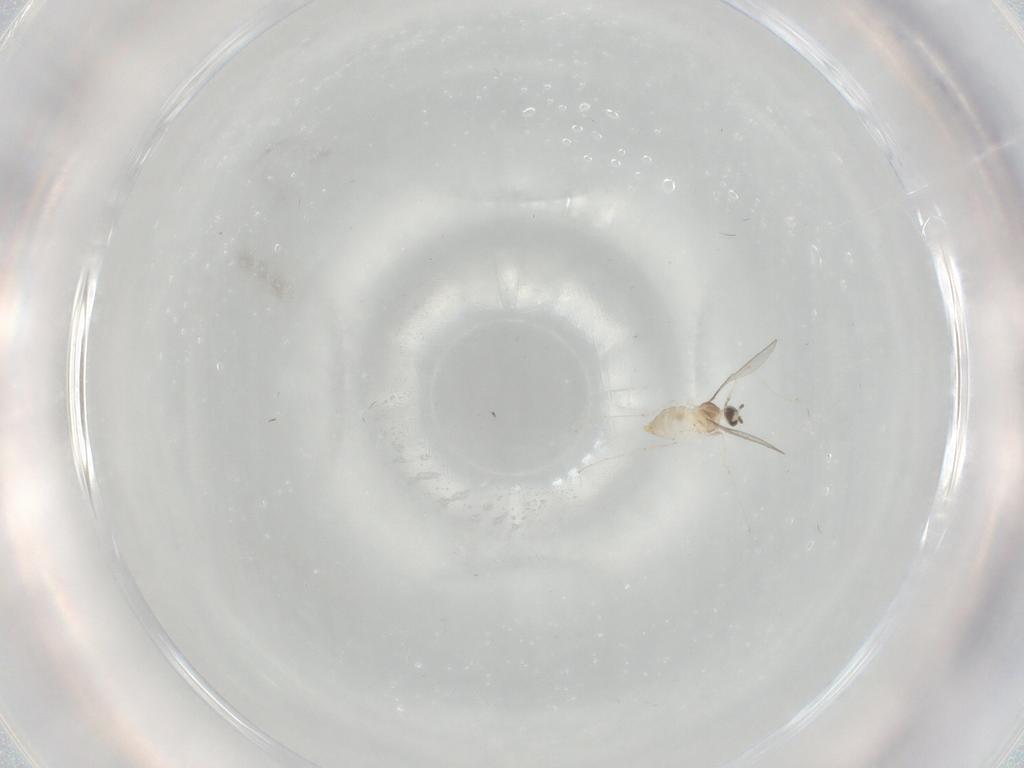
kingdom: Animalia
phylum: Arthropoda
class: Insecta
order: Diptera
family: Cecidomyiidae
